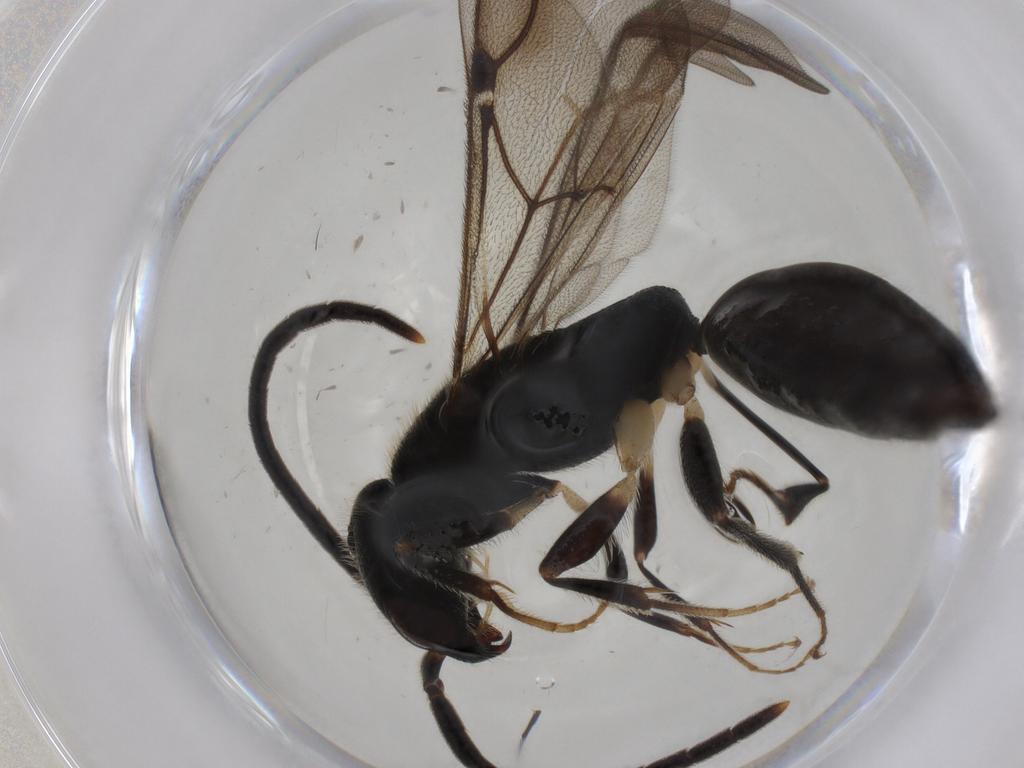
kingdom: Animalia
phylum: Arthropoda
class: Insecta
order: Hymenoptera
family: Bethylidae
